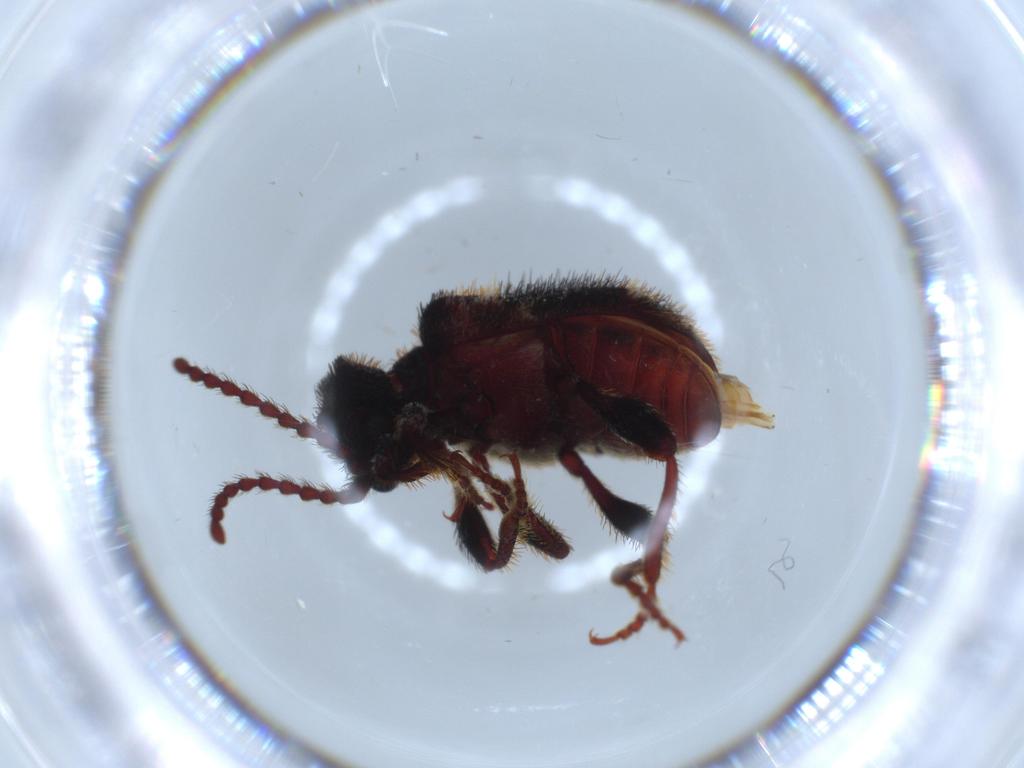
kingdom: Animalia
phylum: Arthropoda
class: Insecta
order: Coleoptera
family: Ptinidae
